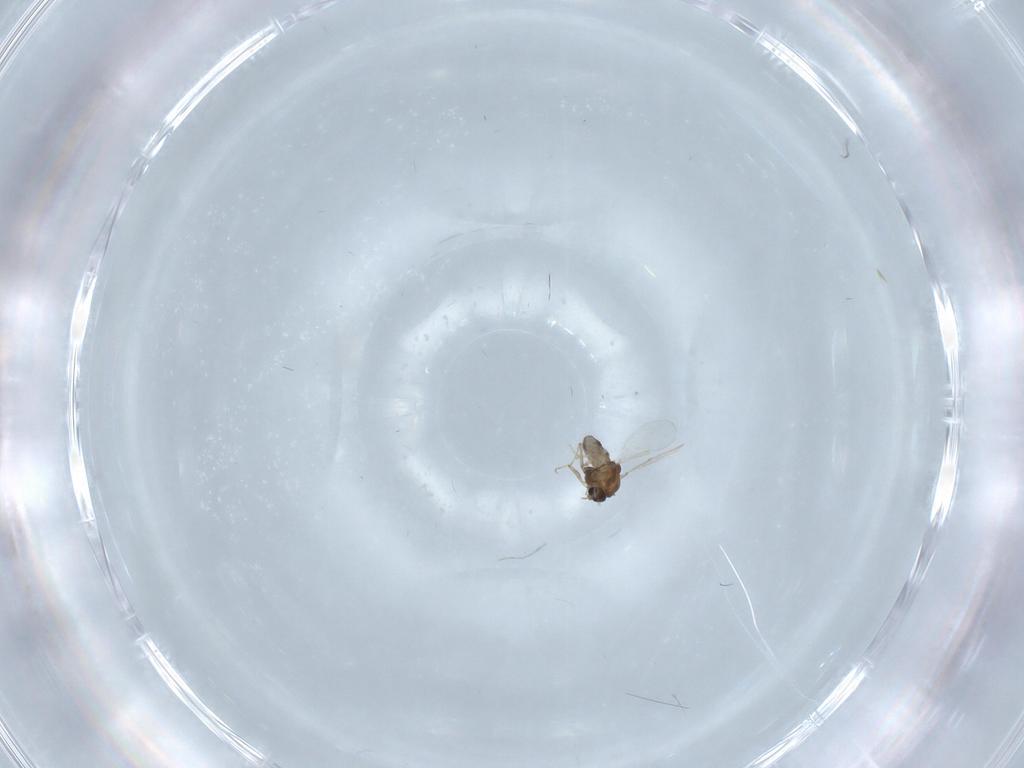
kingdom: Animalia
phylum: Arthropoda
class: Insecta
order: Diptera
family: Chironomidae
